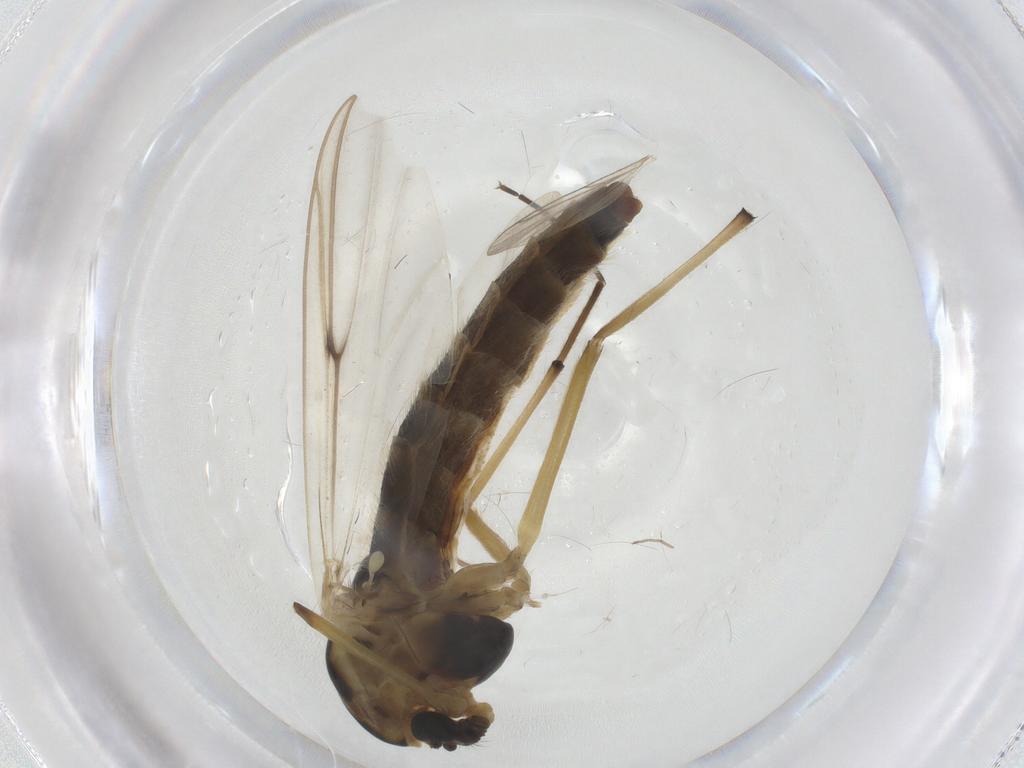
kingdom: Animalia
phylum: Arthropoda
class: Insecta
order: Diptera
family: Chironomidae
